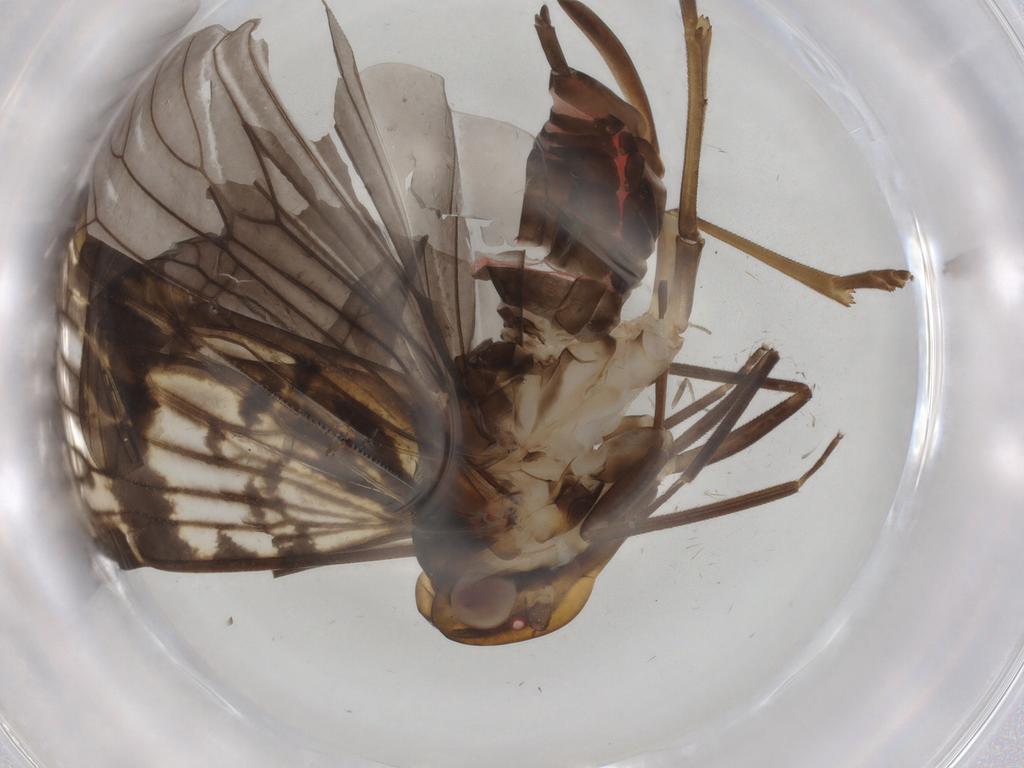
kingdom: Animalia
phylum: Arthropoda
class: Insecta
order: Hemiptera
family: Cixiidae
